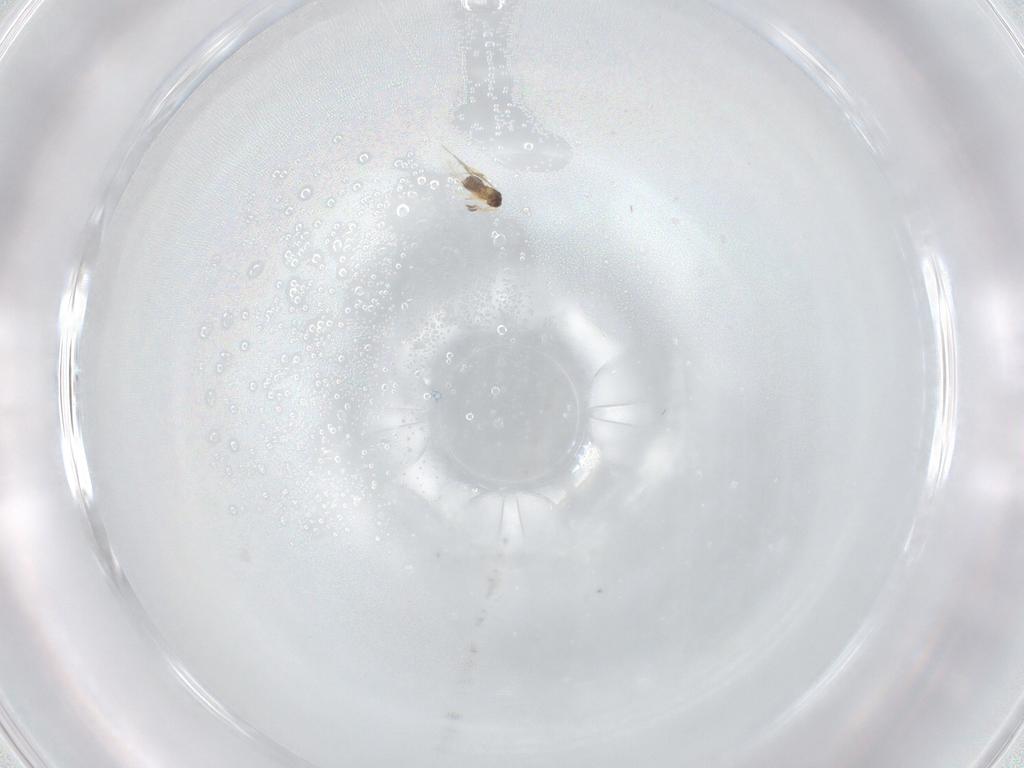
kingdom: Animalia
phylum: Arthropoda
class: Insecta
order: Hymenoptera
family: Mymaridae
